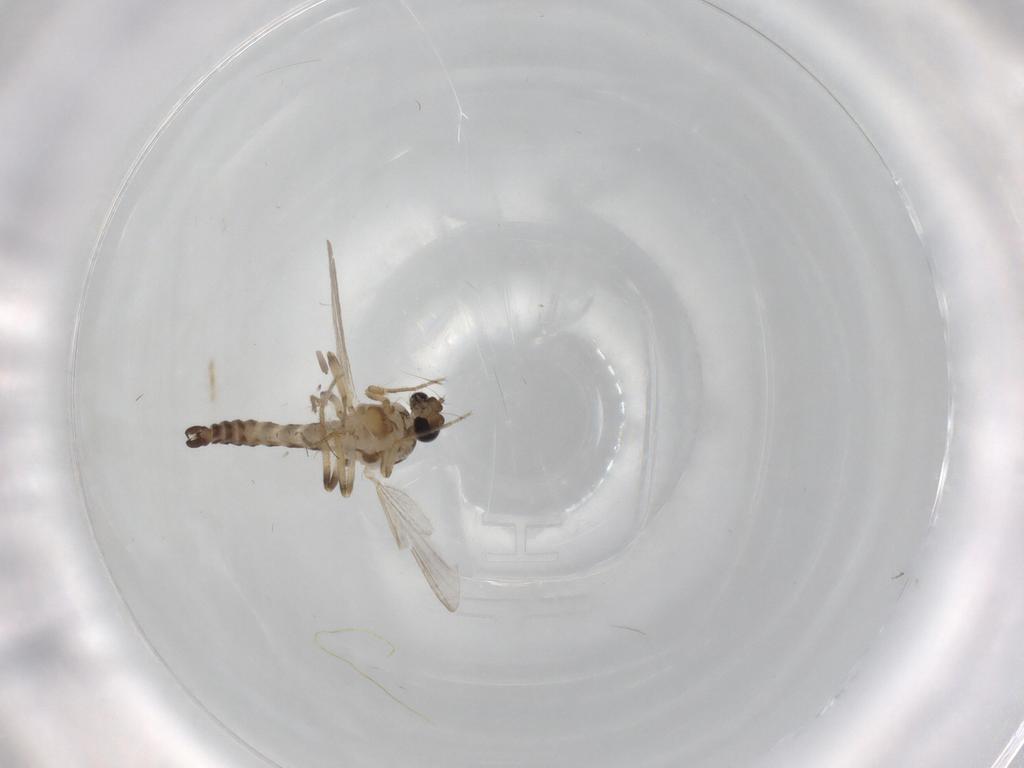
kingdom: Animalia
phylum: Arthropoda
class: Insecta
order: Diptera
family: Ceratopogonidae
